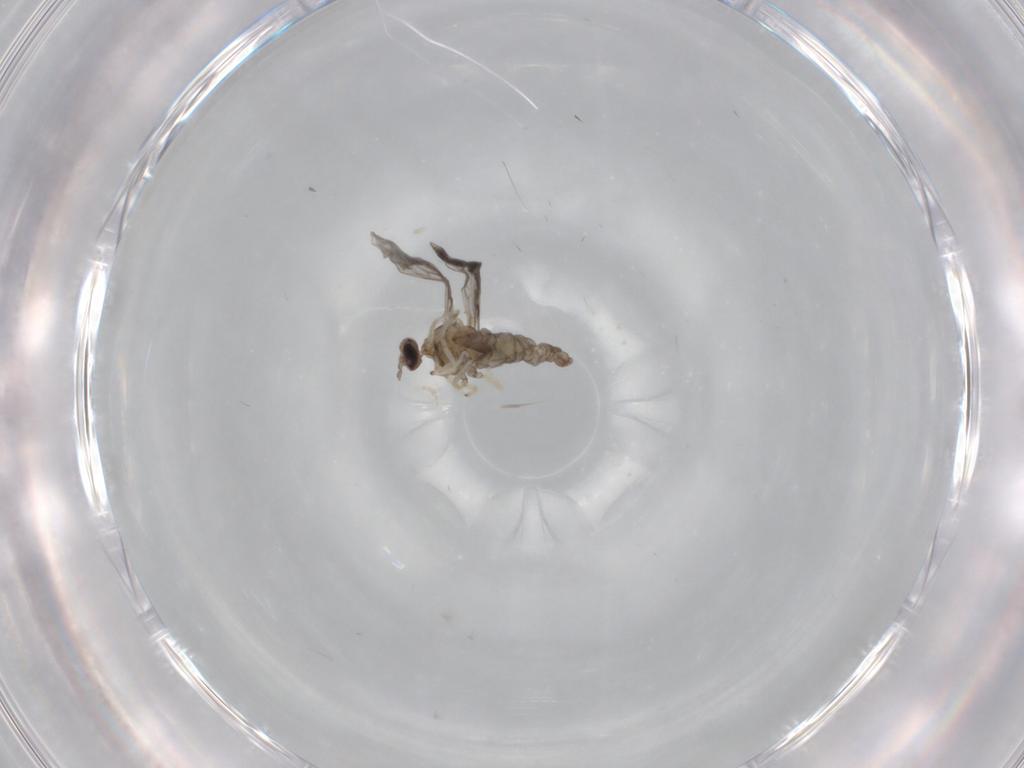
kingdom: Animalia
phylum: Arthropoda
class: Insecta
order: Diptera
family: Cecidomyiidae
